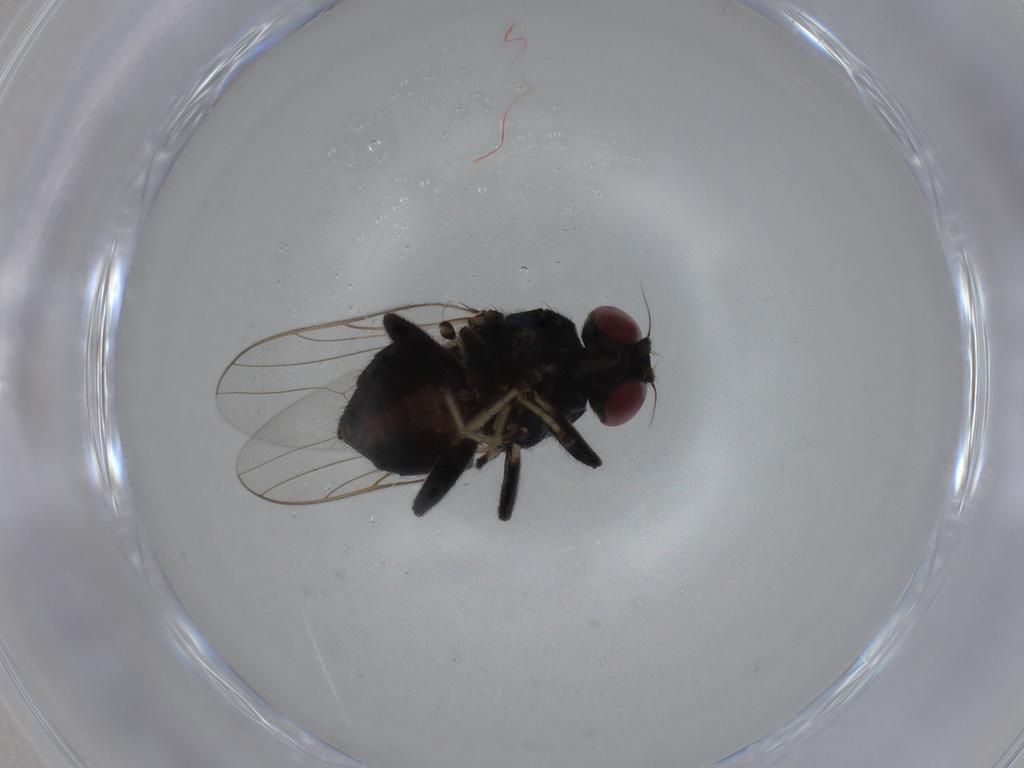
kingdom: Animalia
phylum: Arthropoda
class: Insecta
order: Diptera
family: Chloropidae
